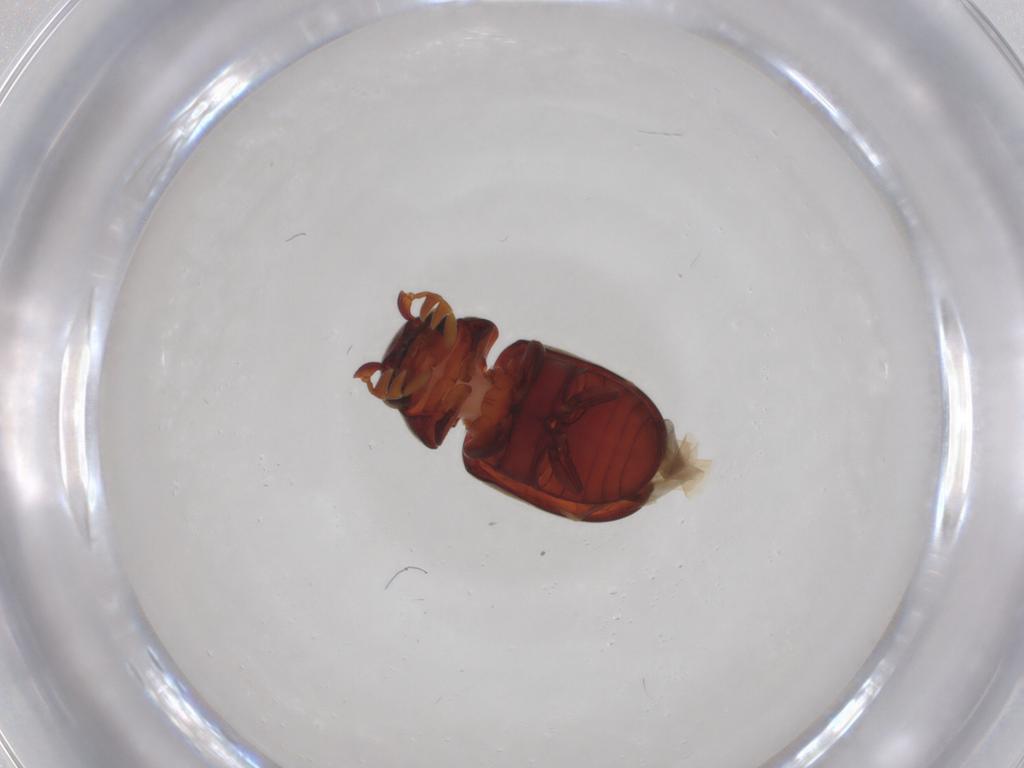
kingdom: Animalia
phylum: Arthropoda
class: Insecta
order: Coleoptera
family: Ptinidae
